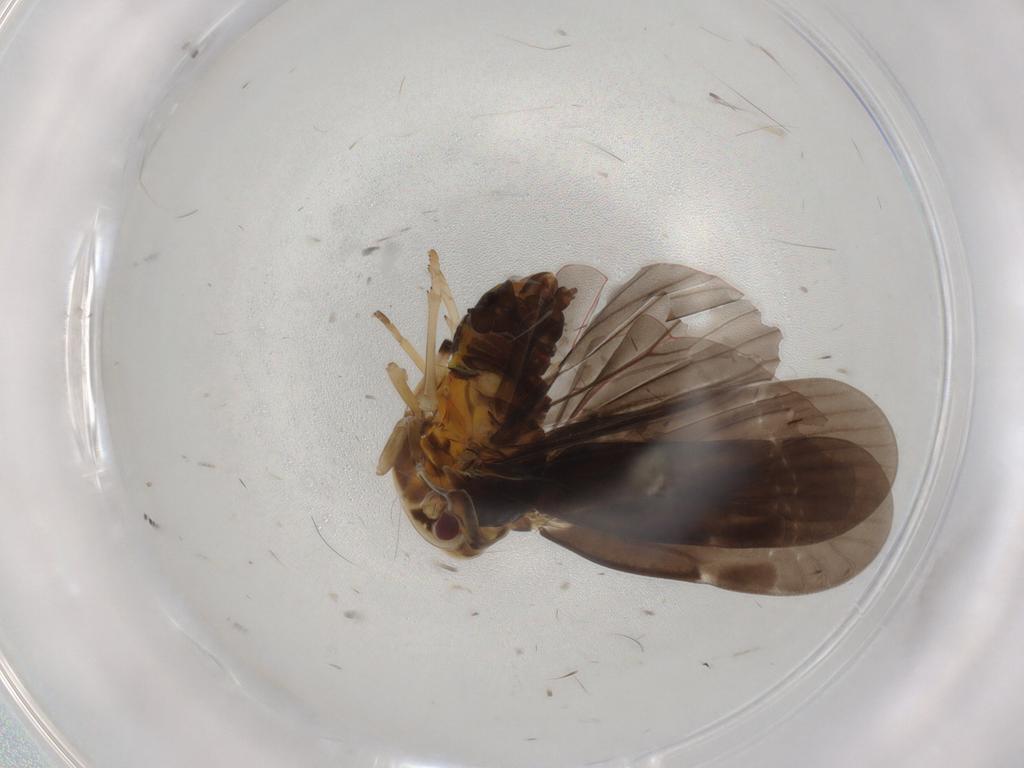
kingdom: Animalia
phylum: Arthropoda
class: Insecta
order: Hemiptera
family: Derbidae
